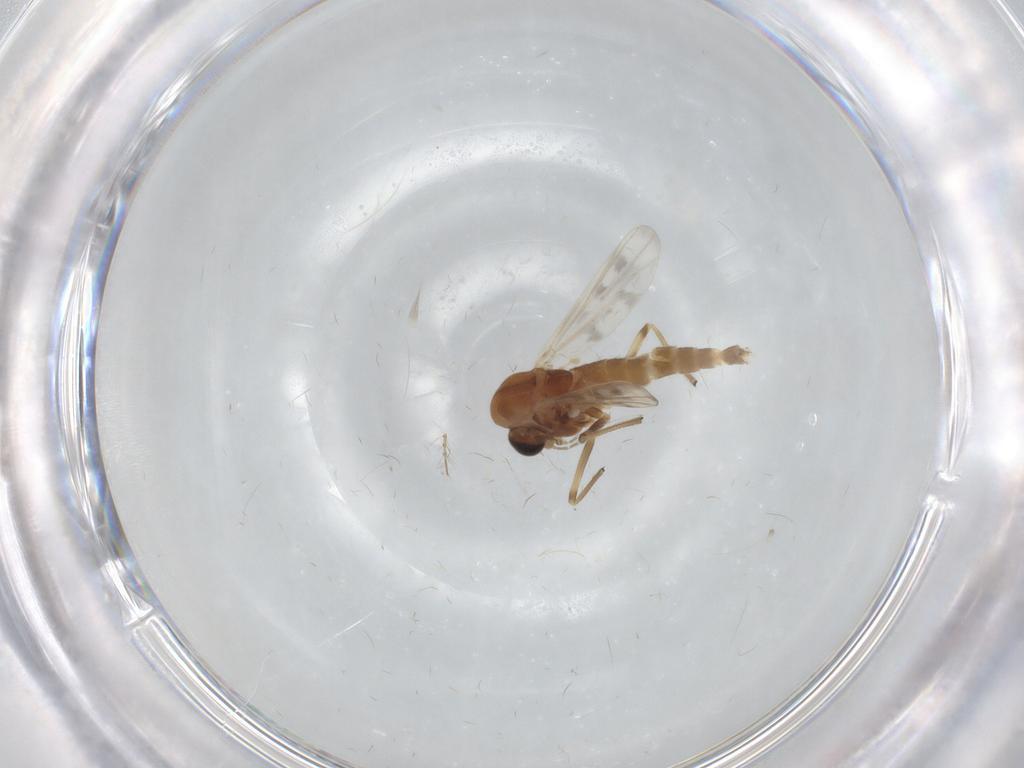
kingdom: Animalia
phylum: Arthropoda
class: Insecta
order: Diptera
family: Chironomidae
